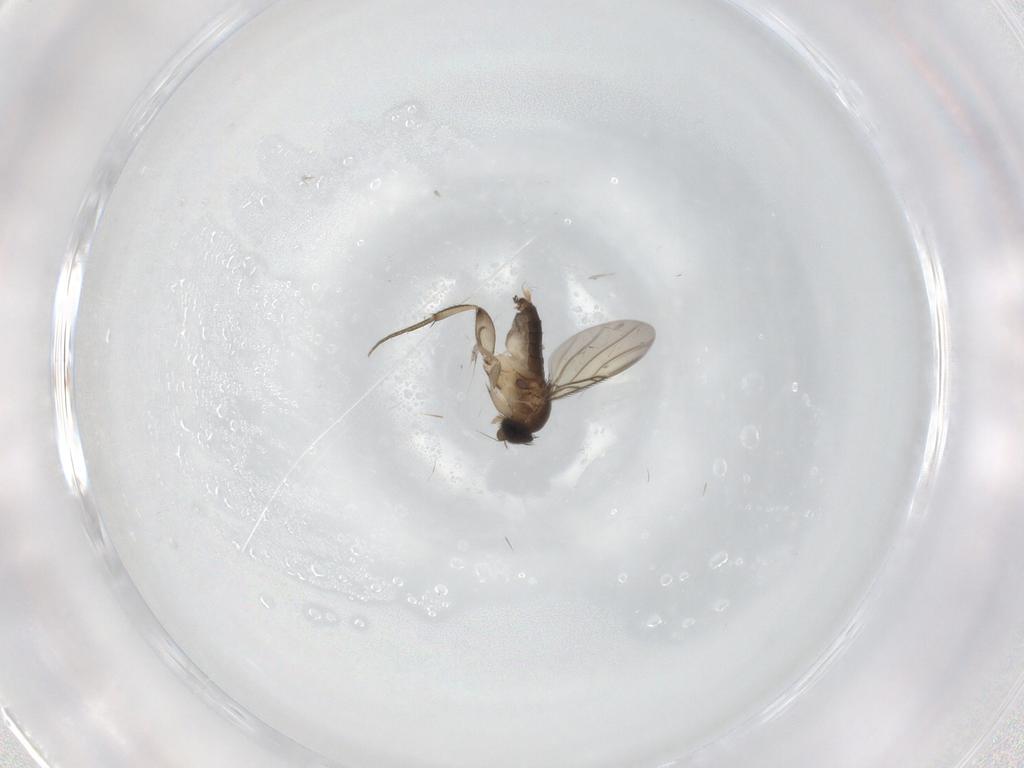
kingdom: Animalia
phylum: Arthropoda
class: Insecta
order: Diptera
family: Phoridae
